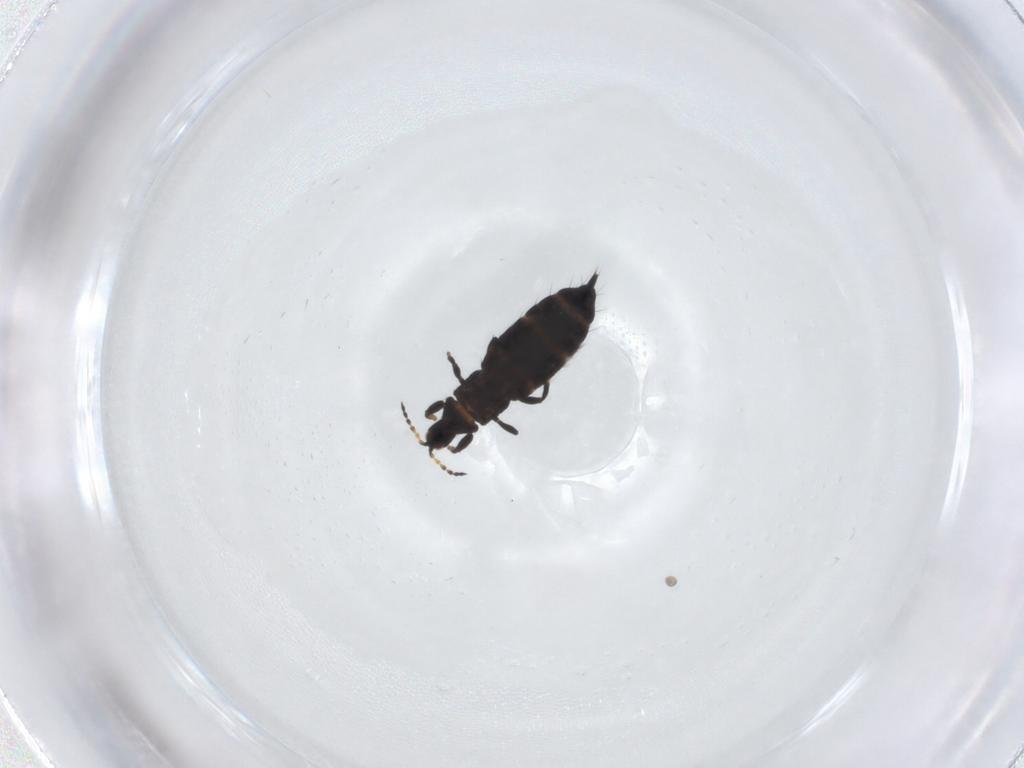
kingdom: Animalia
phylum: Arthropoda
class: Insecta
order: Thysanoptera
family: Phlaeothripidae
